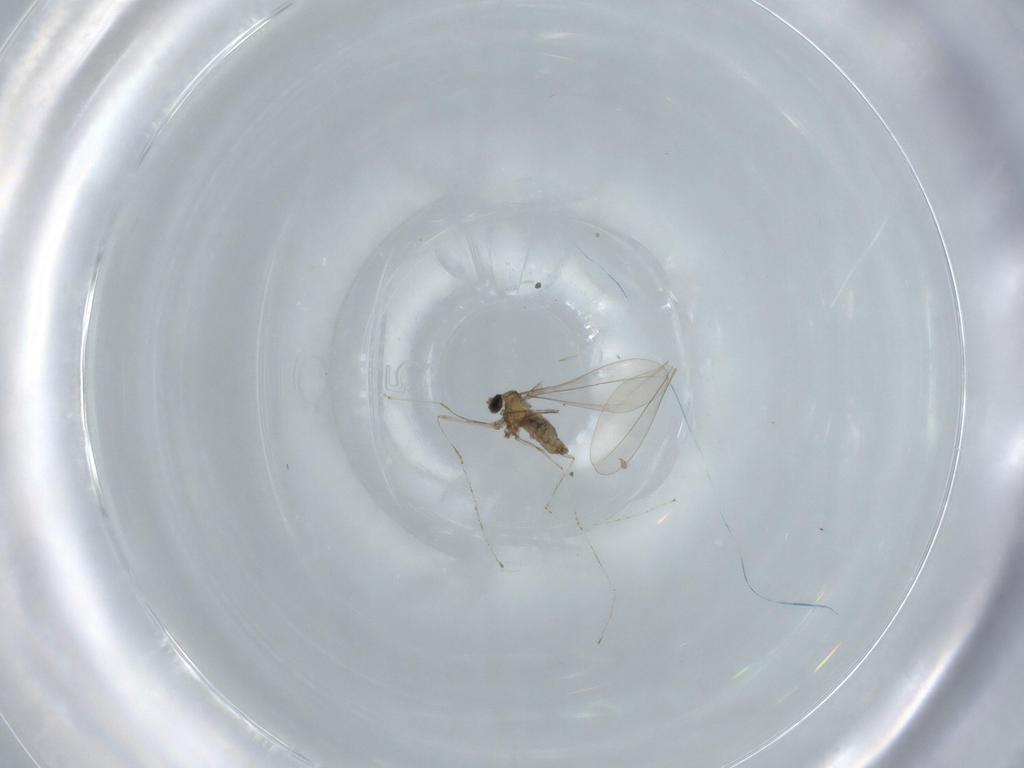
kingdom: Animalia
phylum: Arthropoda
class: Insecta
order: Diptera
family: Cecidomyiidae
